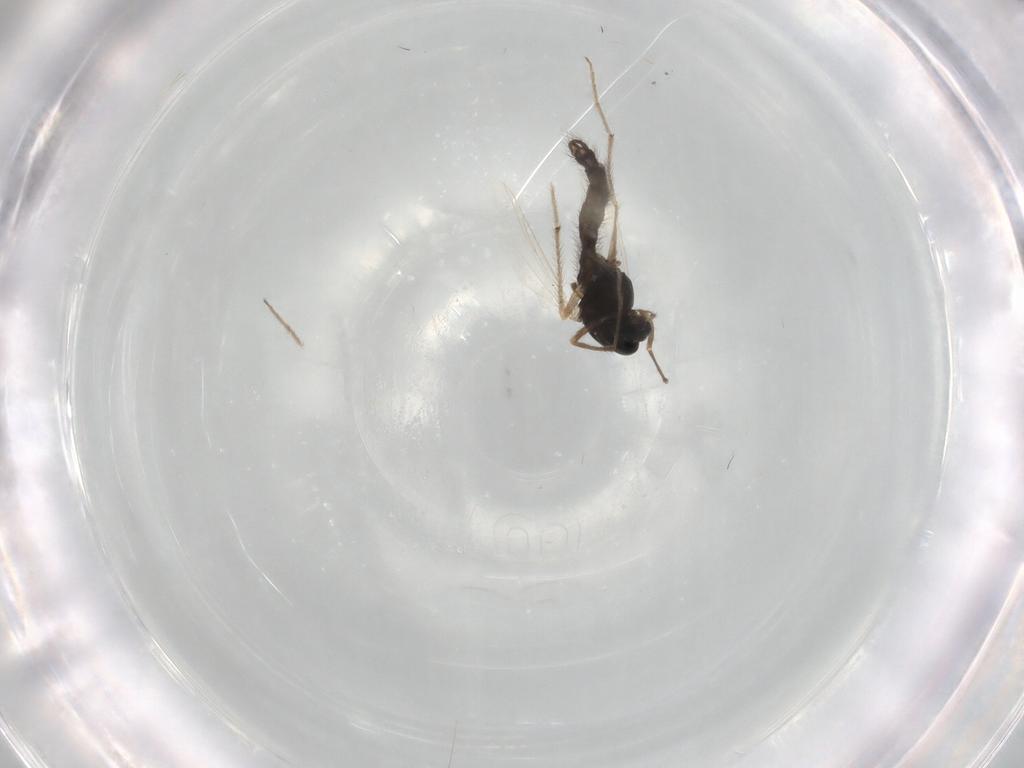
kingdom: Animalia
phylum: Arthropoda
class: Insecta
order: Diptera
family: Chironomidae
